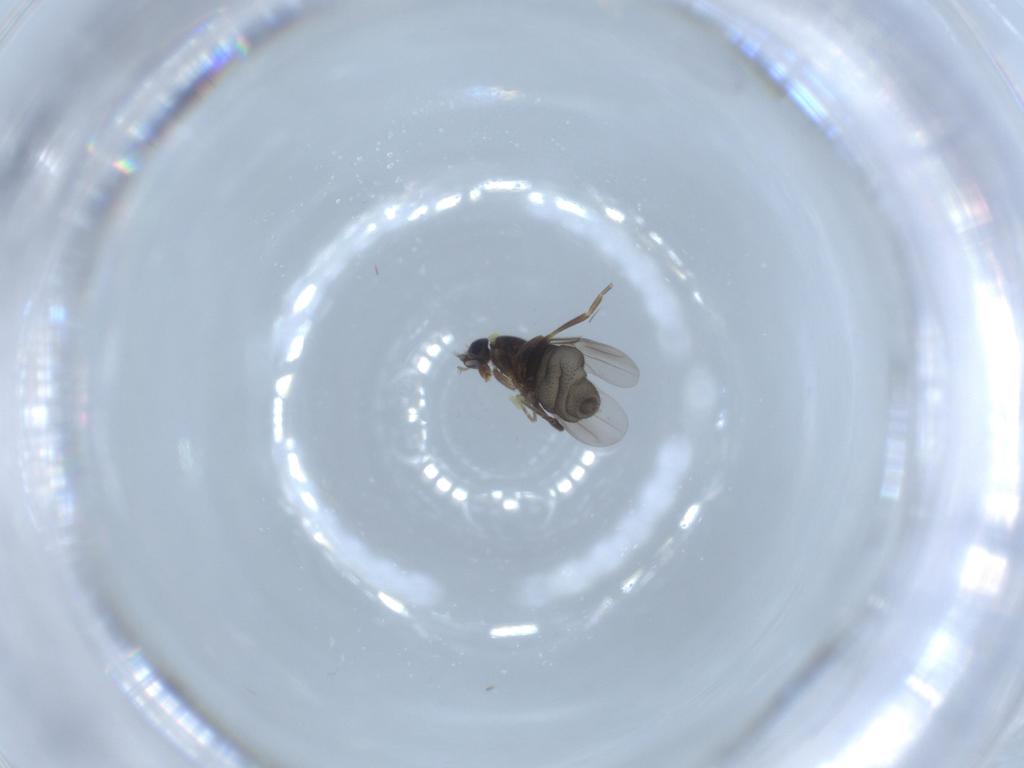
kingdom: Animalia
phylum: Arthropoda
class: Insecta
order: Diptera
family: Phoridae
